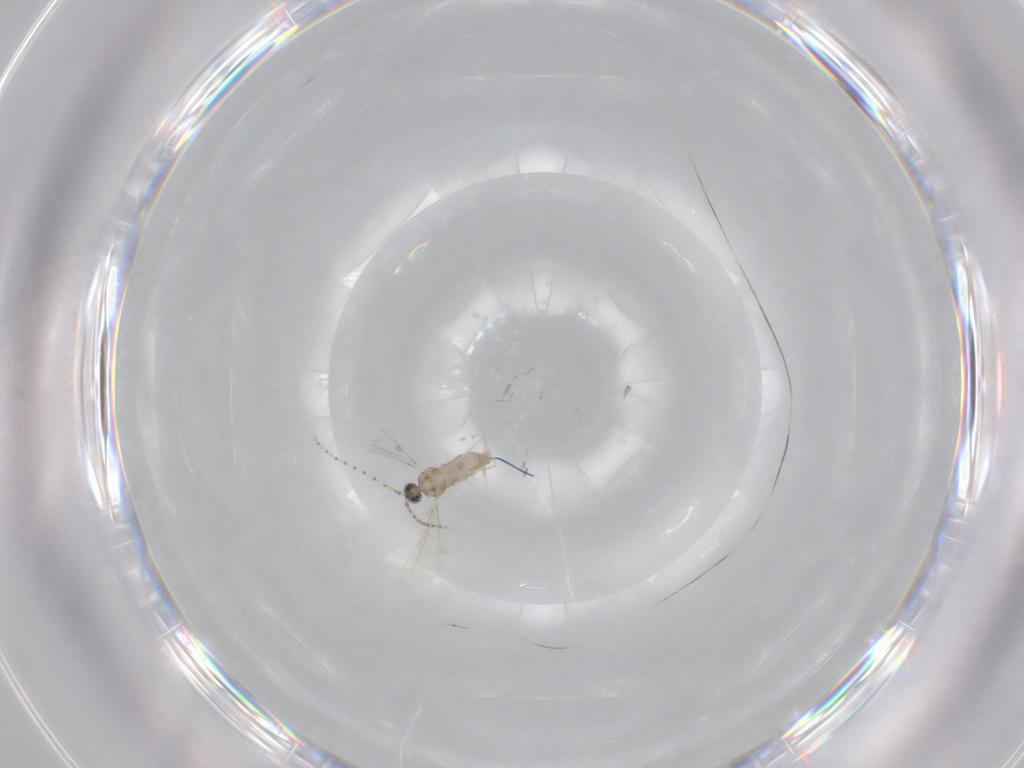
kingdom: Animalia
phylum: Arthropoda
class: Insecta
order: Diptera
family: Cecidomyiidae
